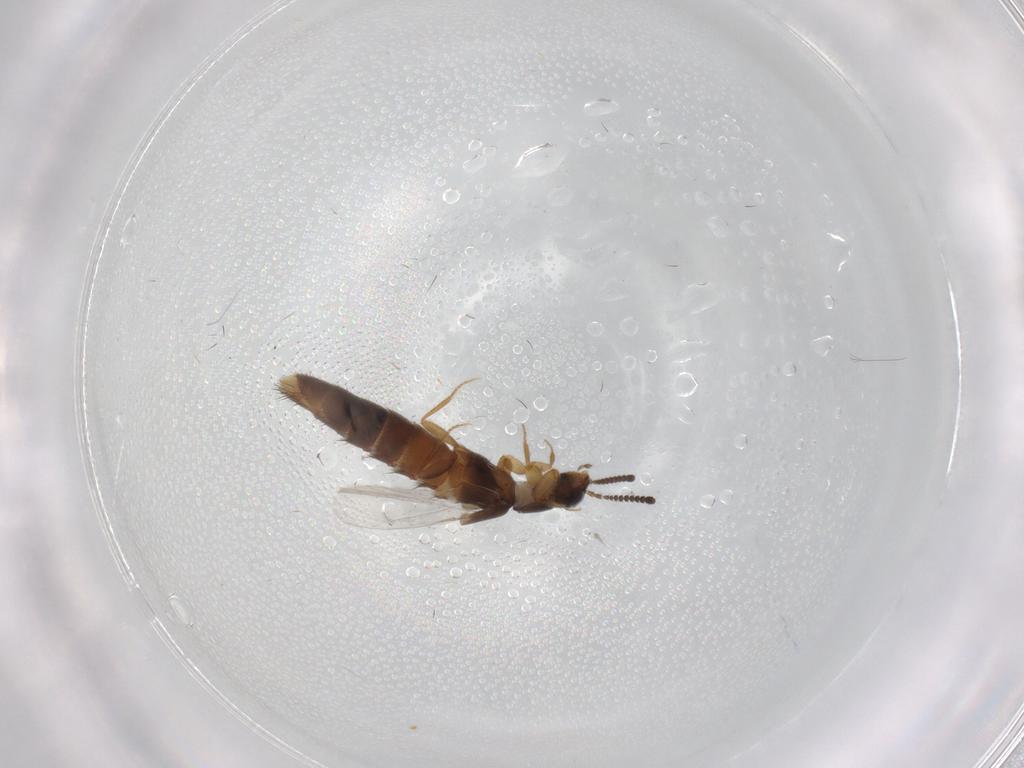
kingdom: Animalia
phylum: Arthropoda
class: Insecta
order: Coleoptera
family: Staphylinidae
